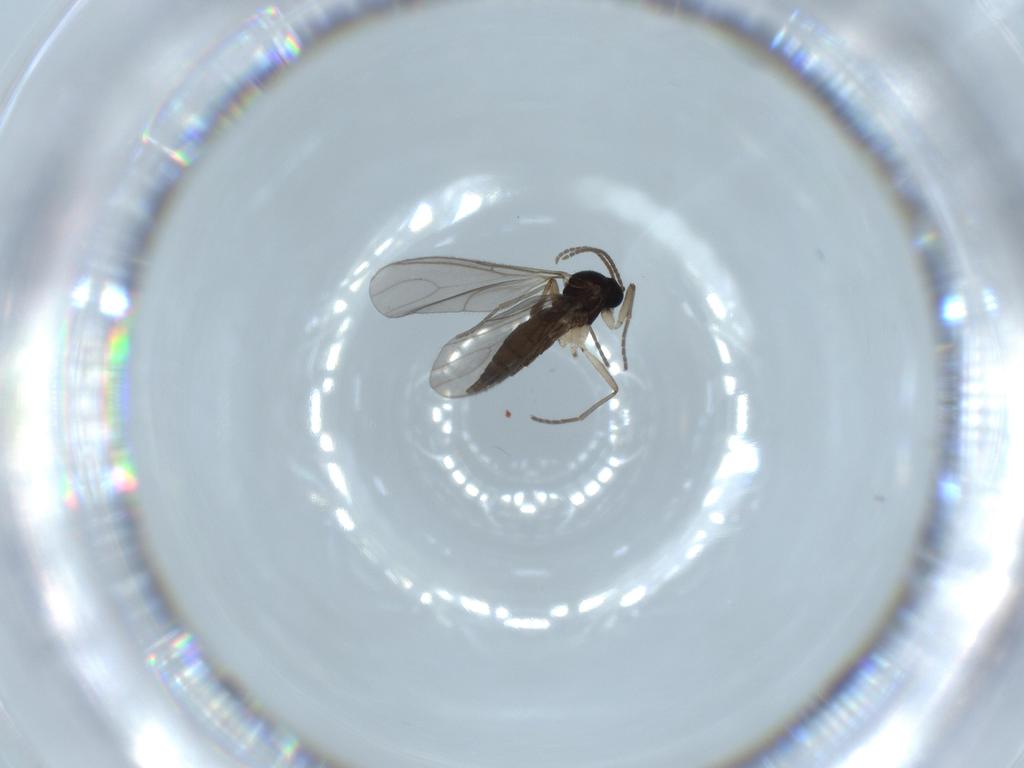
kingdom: Animalia
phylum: Arthropoda
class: Insecta
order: Diptera
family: Sciaridae
